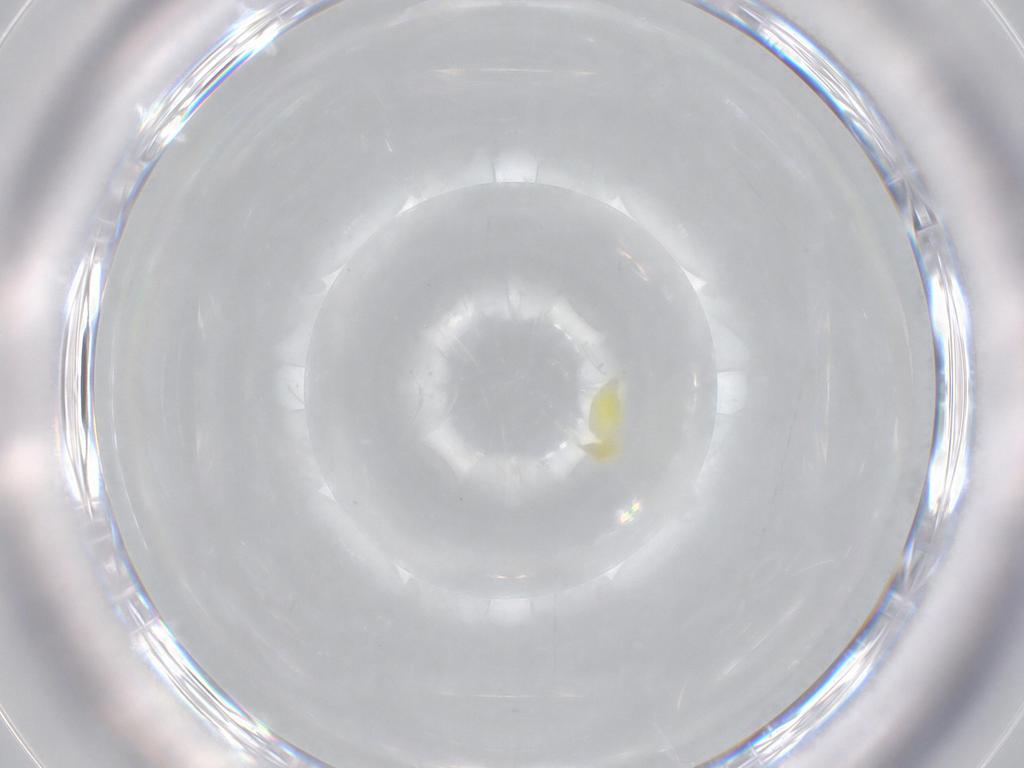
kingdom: Animalia
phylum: Arthropoda
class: Insecta
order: Hemiptera
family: Aleyrodidae
